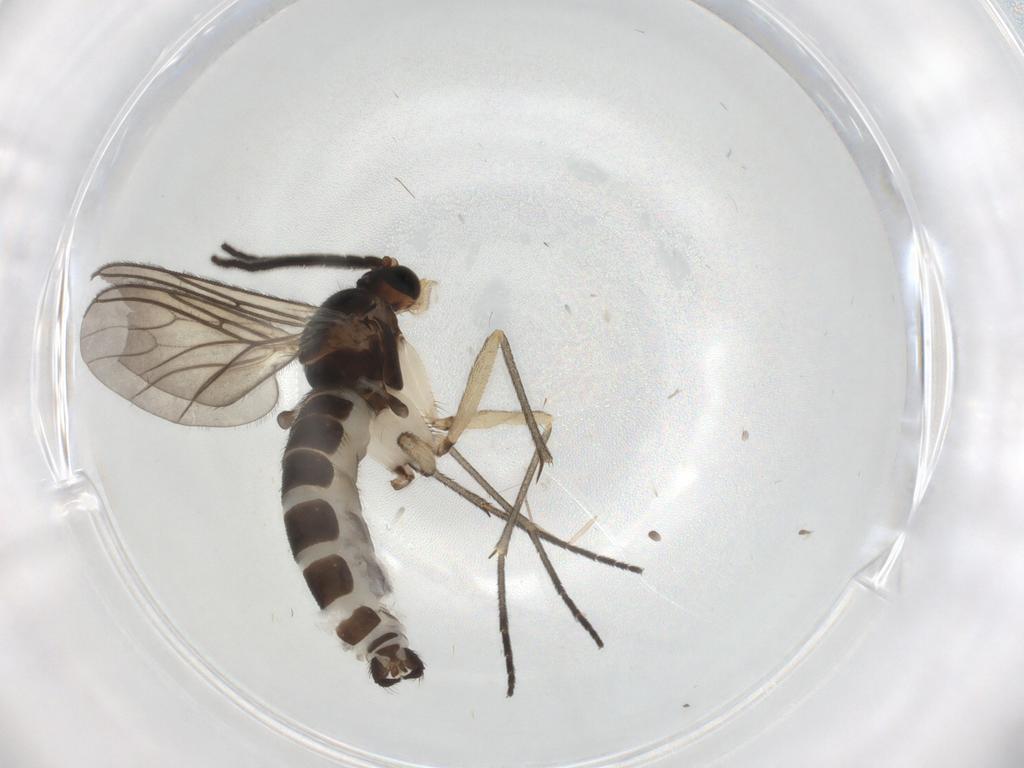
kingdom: Animalia
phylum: Arthropoda
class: Insecta
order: Diptera
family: Sciaridae
